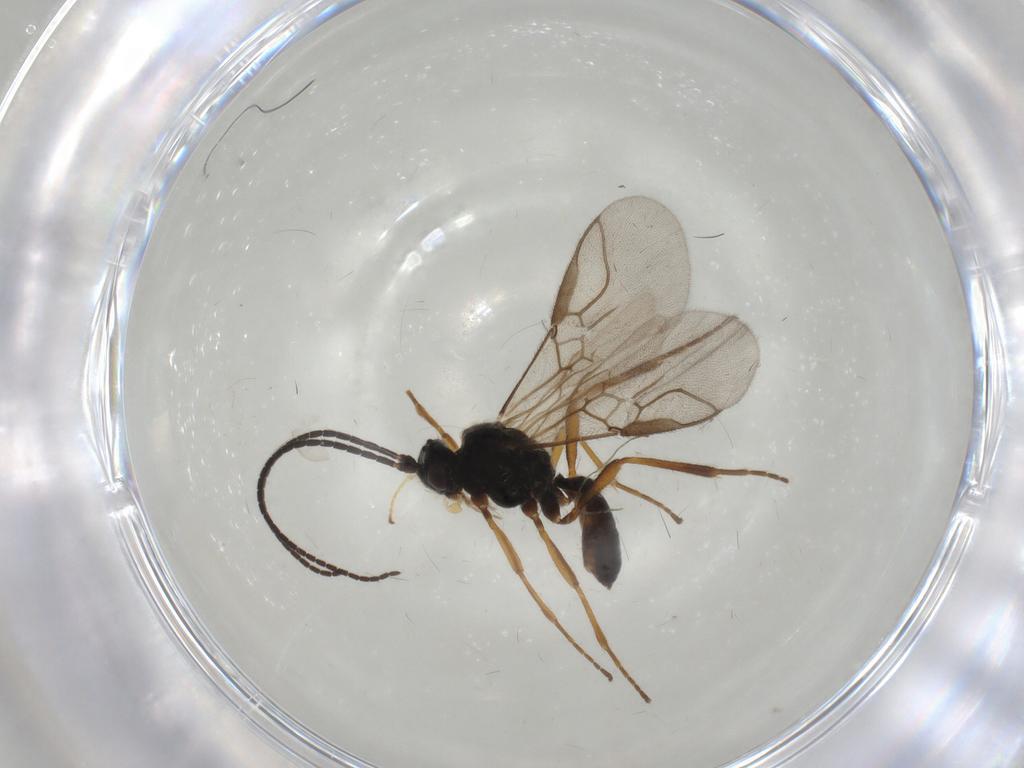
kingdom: Animalia
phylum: Arthropoda
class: Insecta
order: Hymenoptera
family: Braconidae
